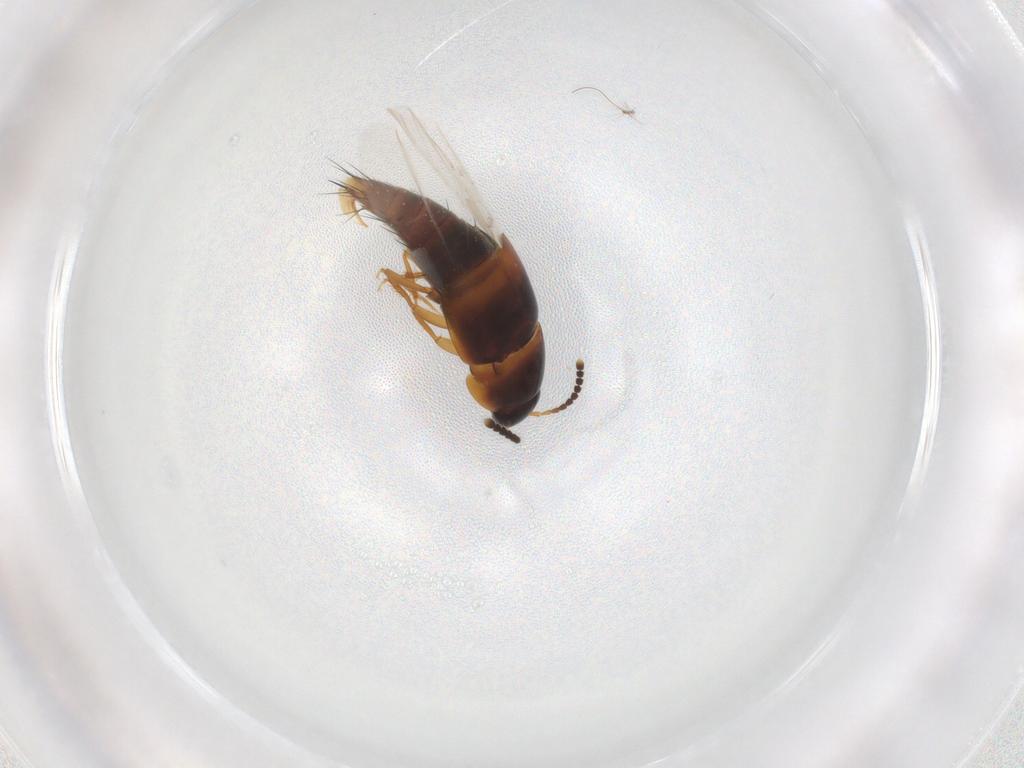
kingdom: Animalia
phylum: Arthropoda
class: Insecta
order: Coleoptera
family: Staphylinidae
